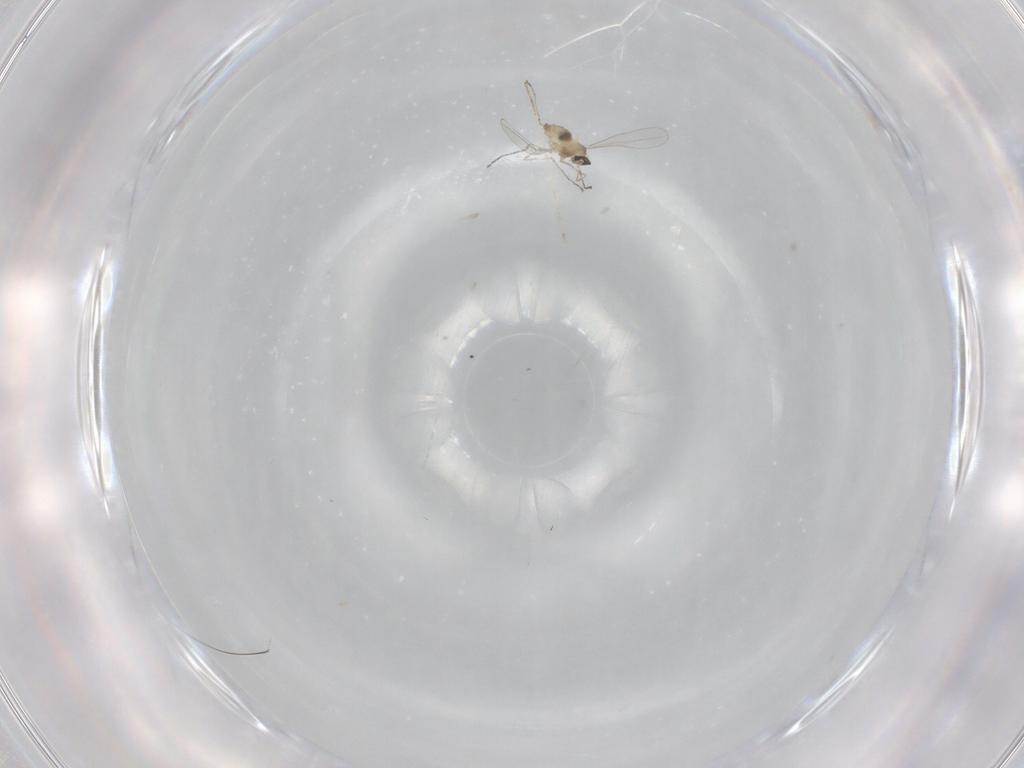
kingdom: Animalia
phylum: Arthropoda
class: Insecta
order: Diptera
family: Cecidomyiidae
